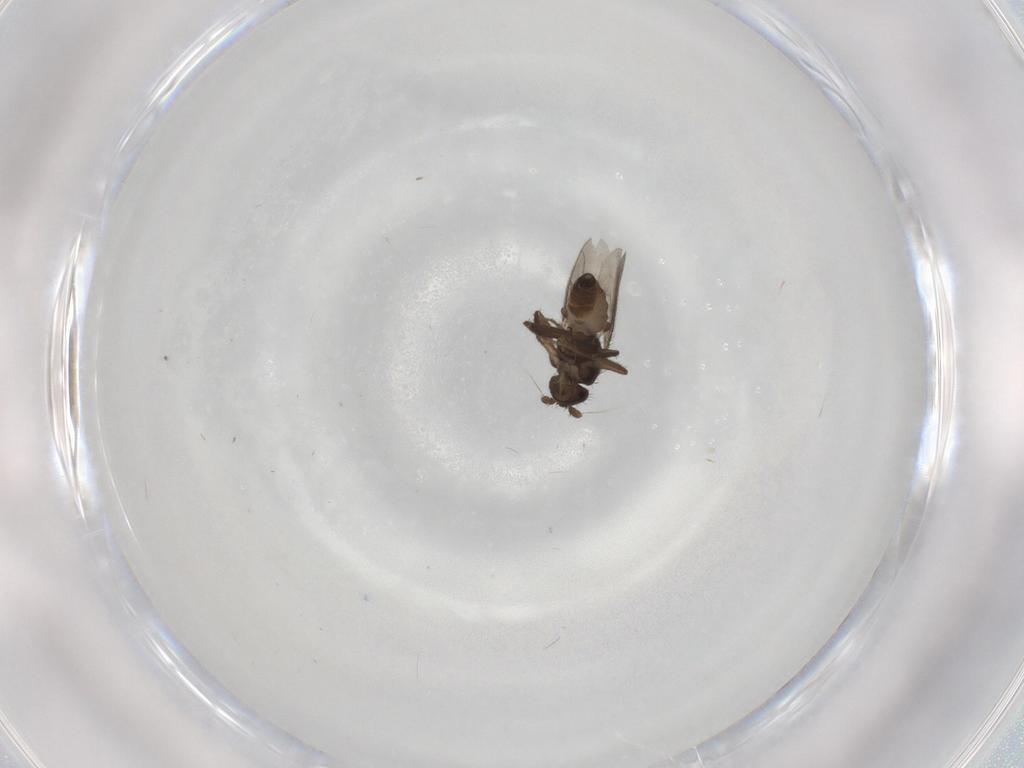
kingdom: Animalia
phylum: Arthropoda
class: Insecta
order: Diptera
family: Cecidomyiidae
